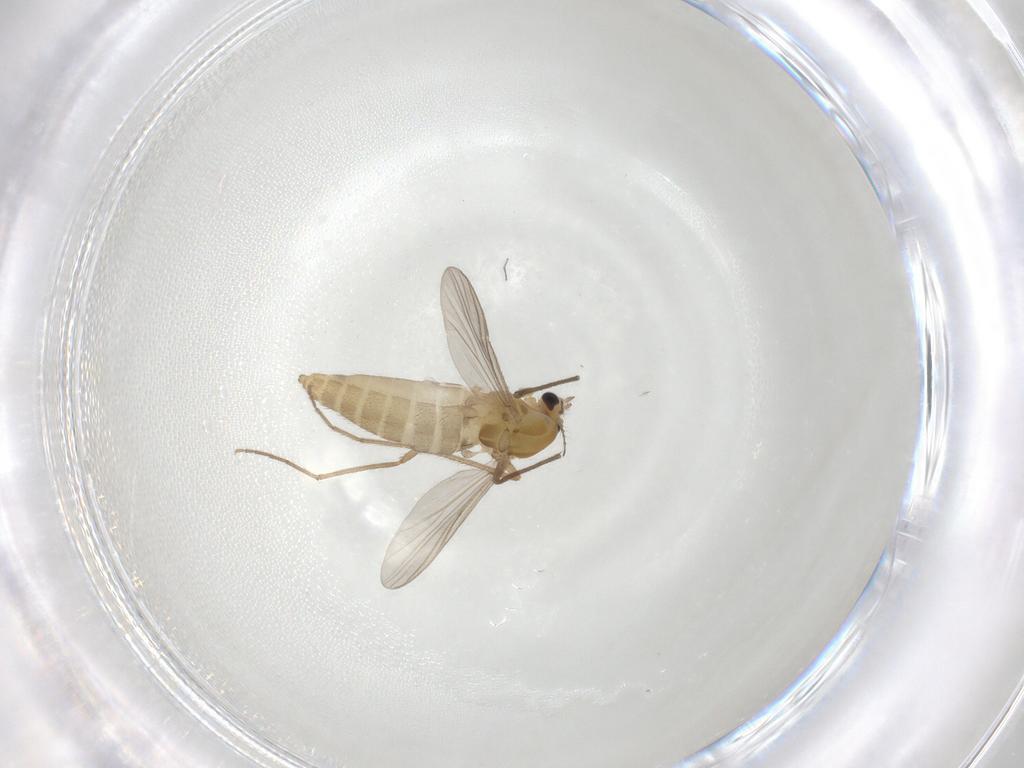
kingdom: Animalia
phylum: Arthropoda
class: Insecta
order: Diptera
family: Chironomidae
